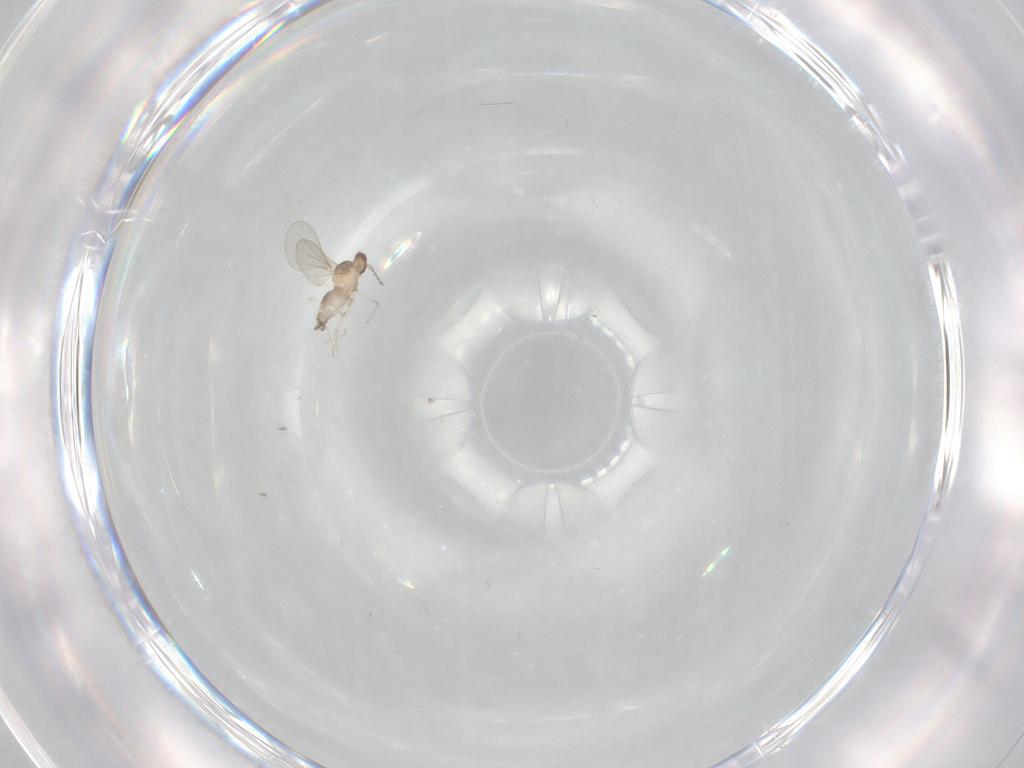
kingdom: Animalia
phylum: Arthropoda
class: Insecta
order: Diptera
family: Cecidomyiidae
